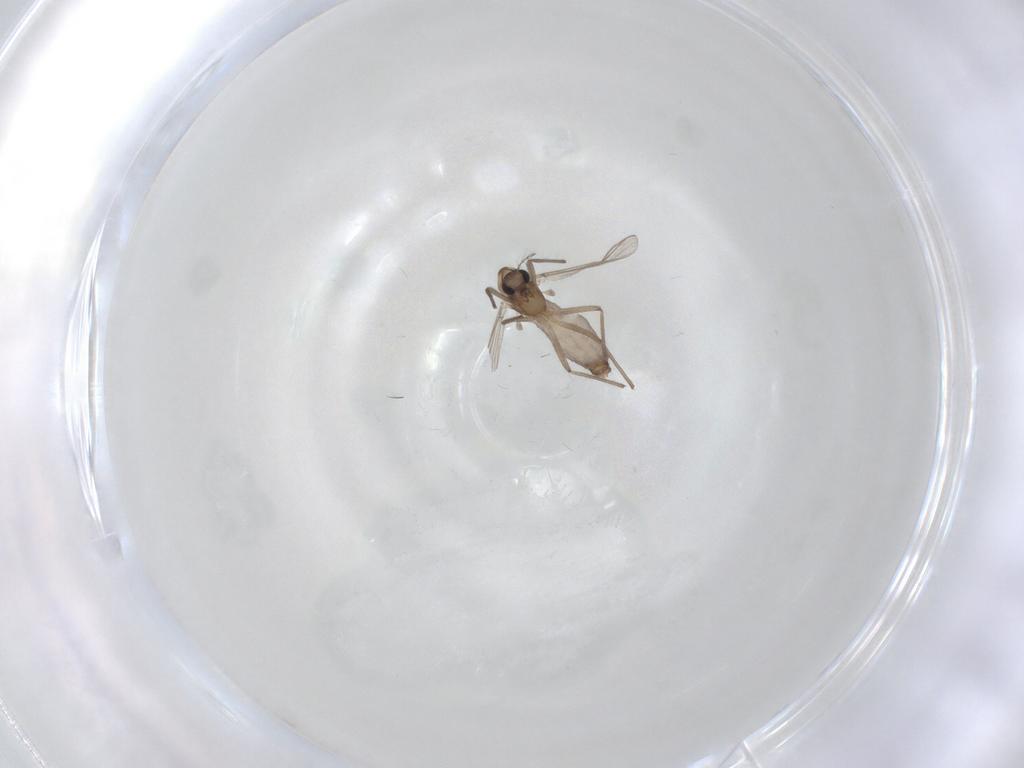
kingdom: Animalia
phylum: Arthropoda
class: Insecta
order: Diptera
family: Chironomidae
